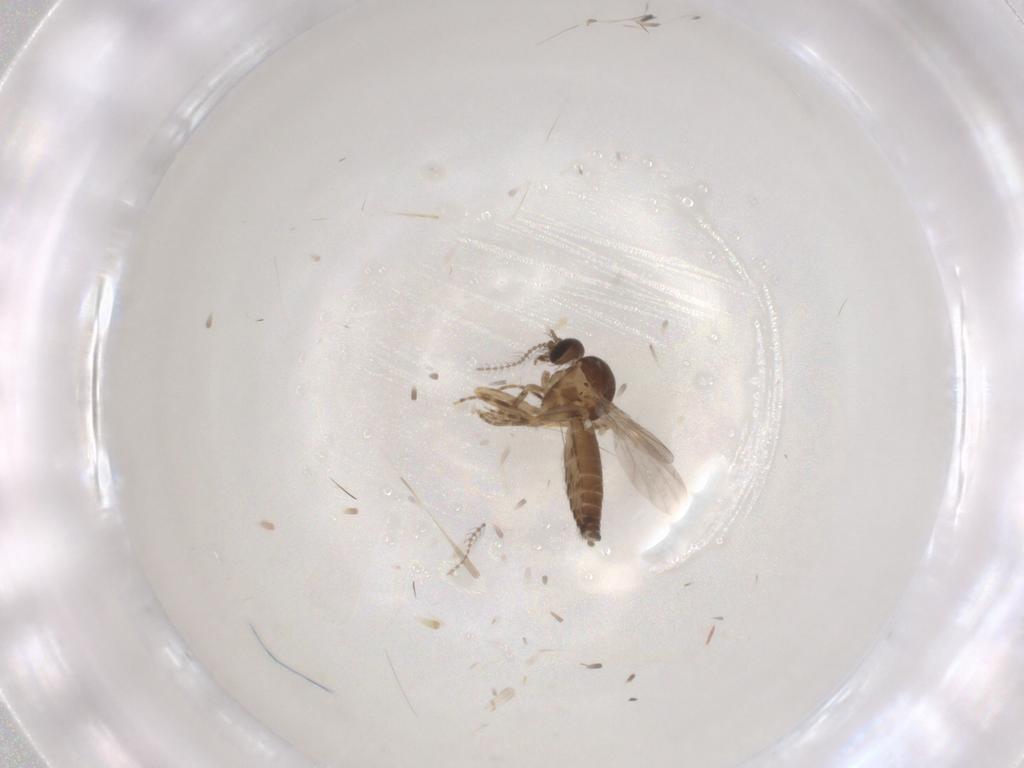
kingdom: Animalia
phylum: Arthropoda
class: Insecta
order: Diptera
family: Ceratopogonidae
